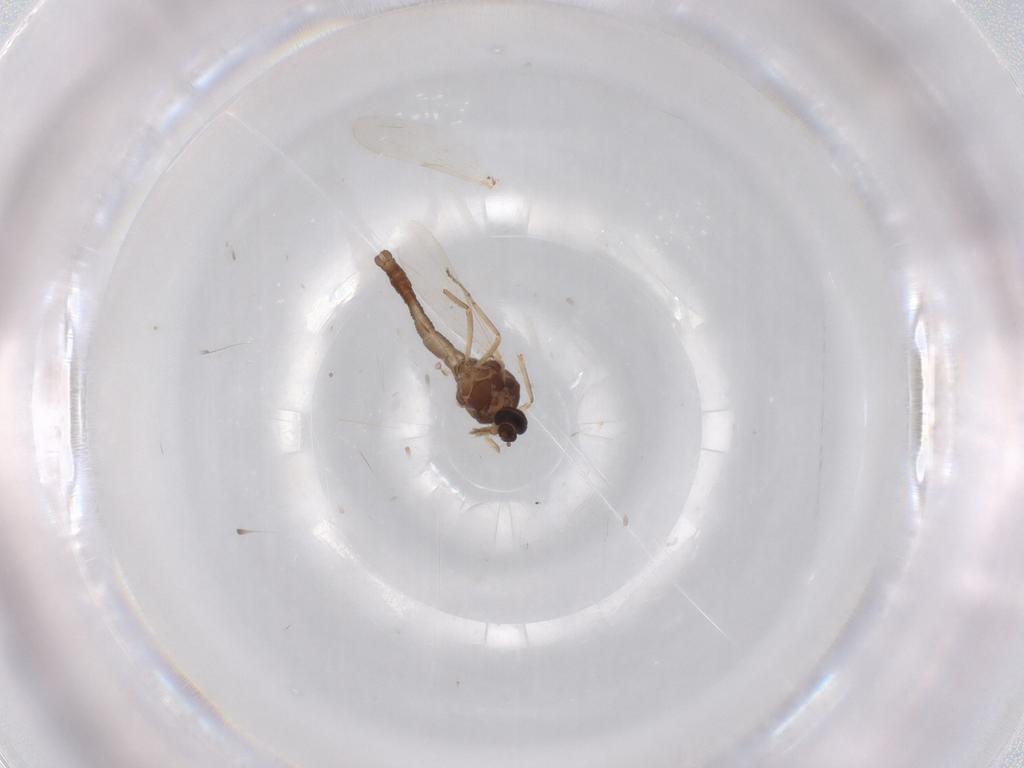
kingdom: Animalia
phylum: Arthropoda
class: Insecta
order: Diptera
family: Ceratopogonidae
